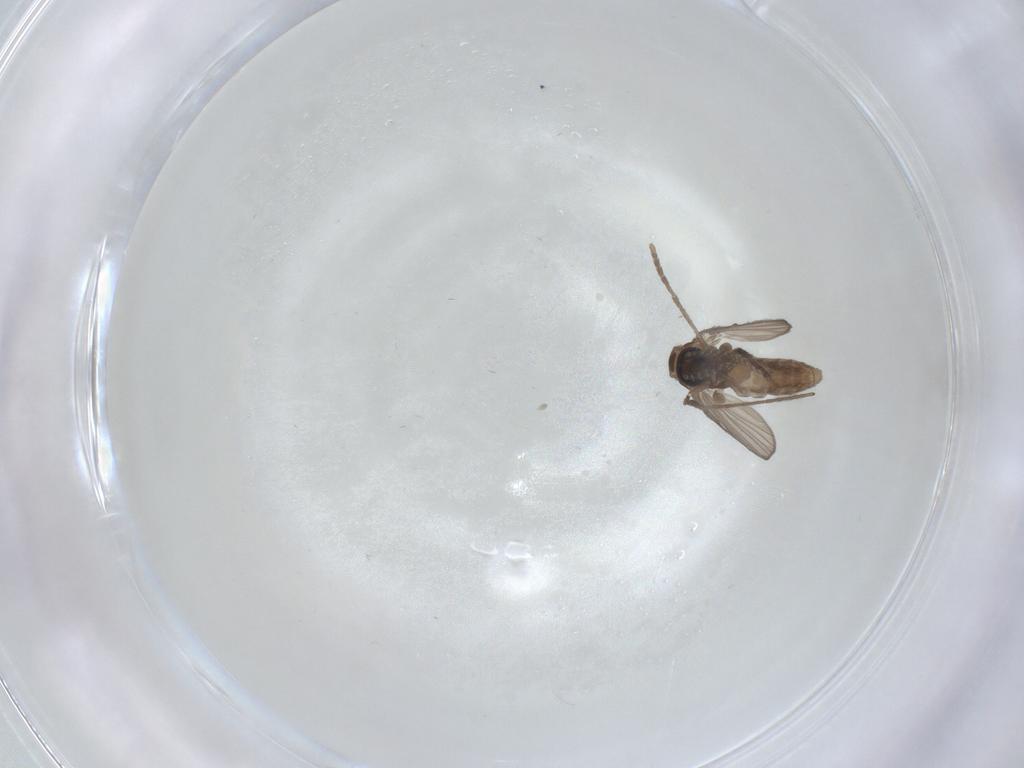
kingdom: Animalia
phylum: Arthropoda
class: Insecta
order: Diptera
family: Psychodidae
